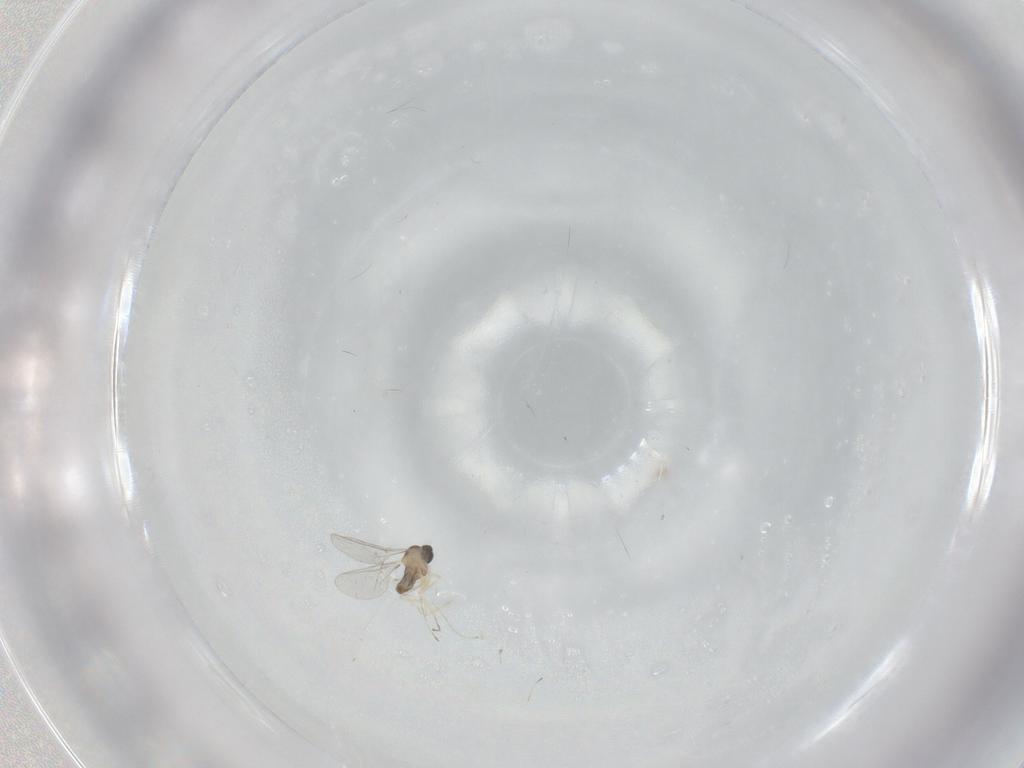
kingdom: Animalia
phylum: Arthropoda
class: Insecta
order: Diptera
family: Cecidomyiidae
